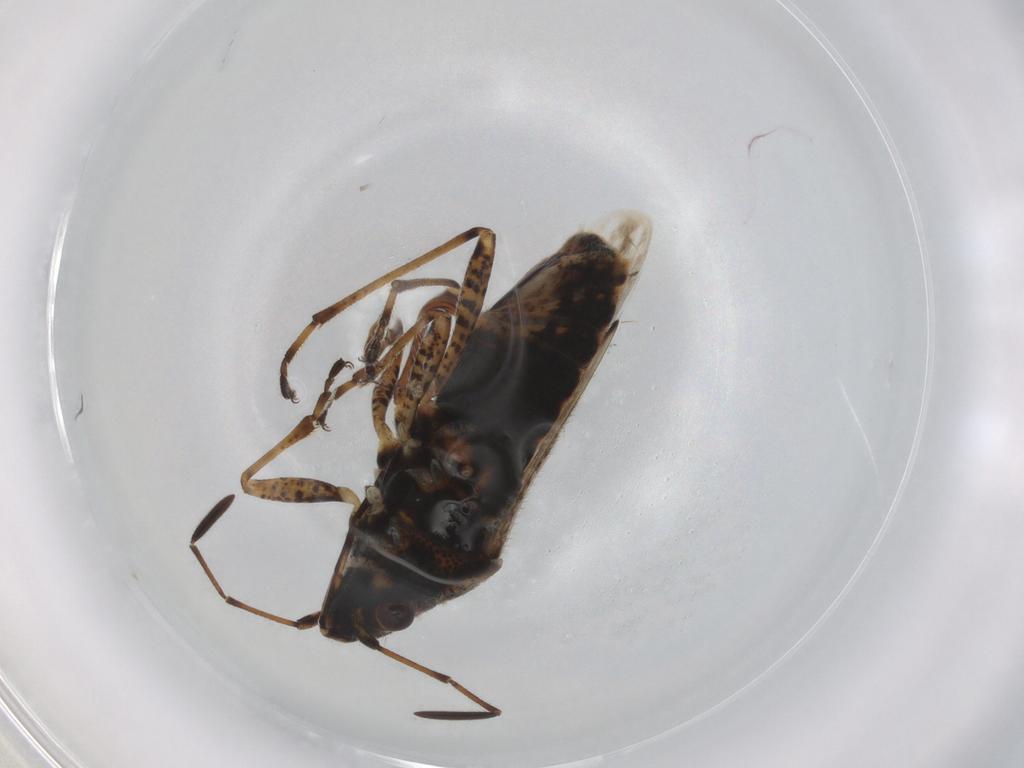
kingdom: Animalia
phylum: Arthropoda
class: Insecta
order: Hemiptera
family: Lygaeidae
